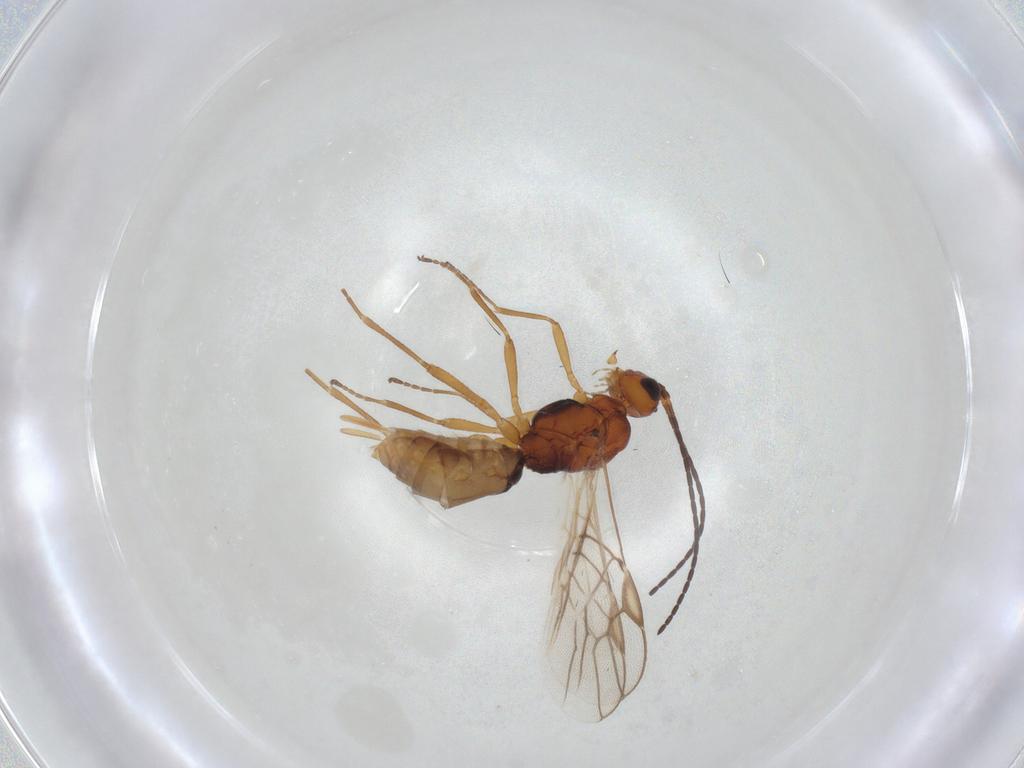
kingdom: Animalia
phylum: Arthropoda
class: Insecta
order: Hymenoptera
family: Braconidae
